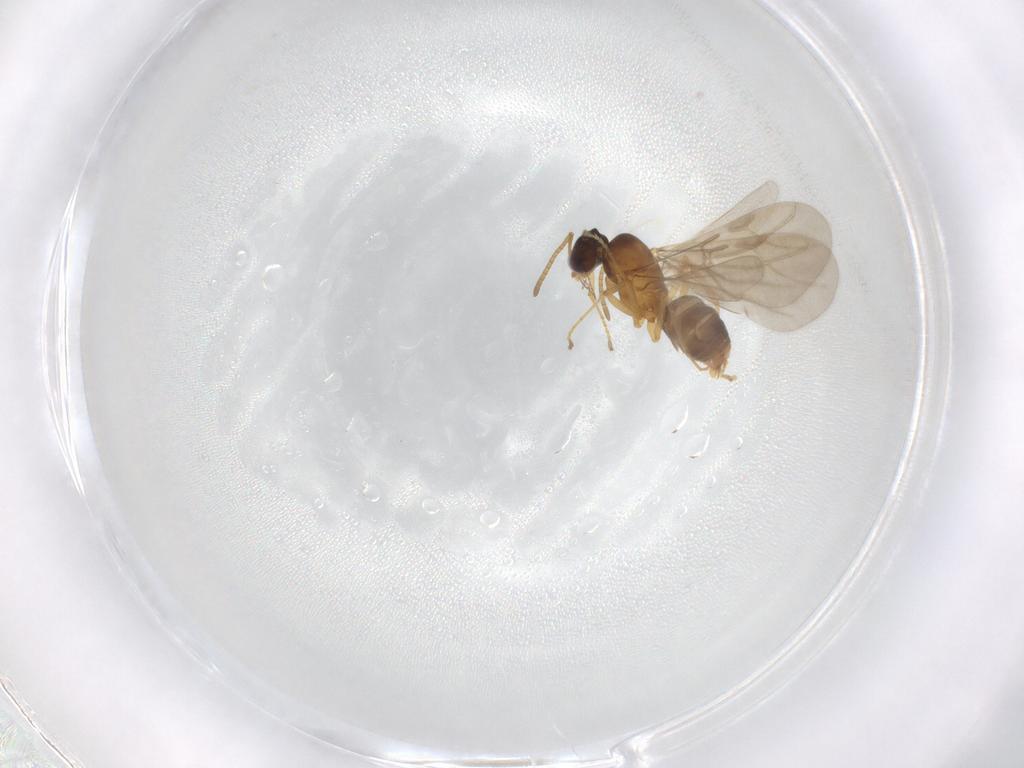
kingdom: Animalia
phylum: Arthropoda
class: Insecta
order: Hymenoptera
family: Formicidae
